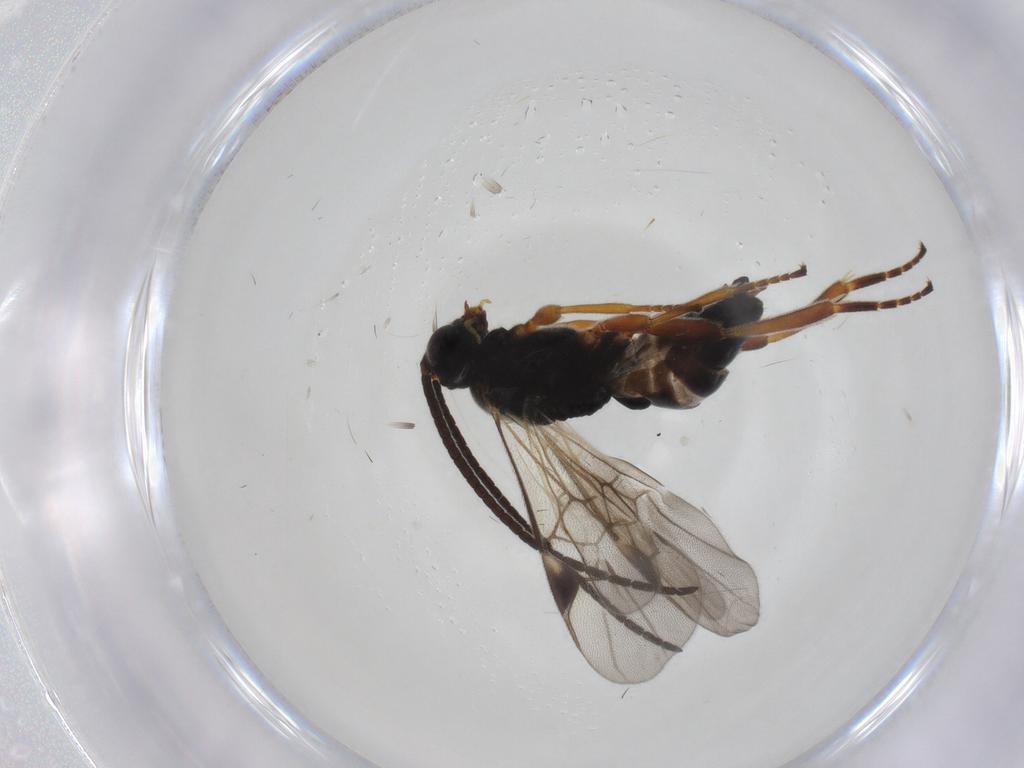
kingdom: Animalia
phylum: Arthropoda
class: Insecta
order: Hymenoptera
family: Braconidae
